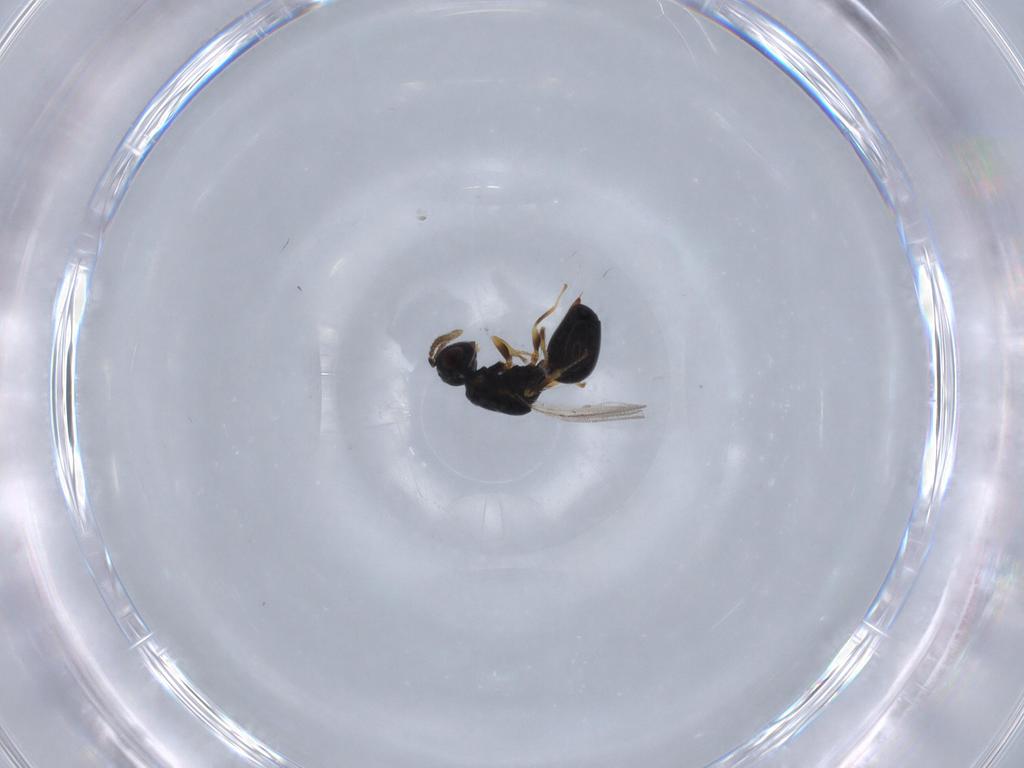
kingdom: Animalia
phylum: Arthropoda
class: Insecta
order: Hymenoptera
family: Eurytomidae
